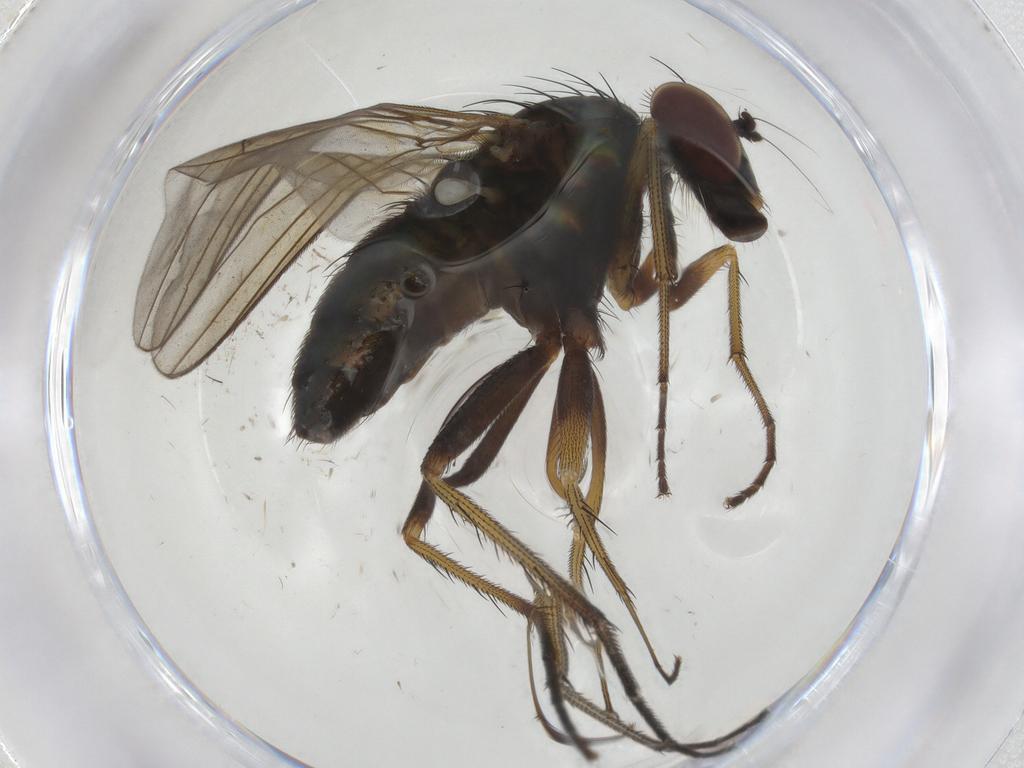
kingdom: Animalia
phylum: Arthropoda
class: Insecta
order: Diptera
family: Dolichopodidae
